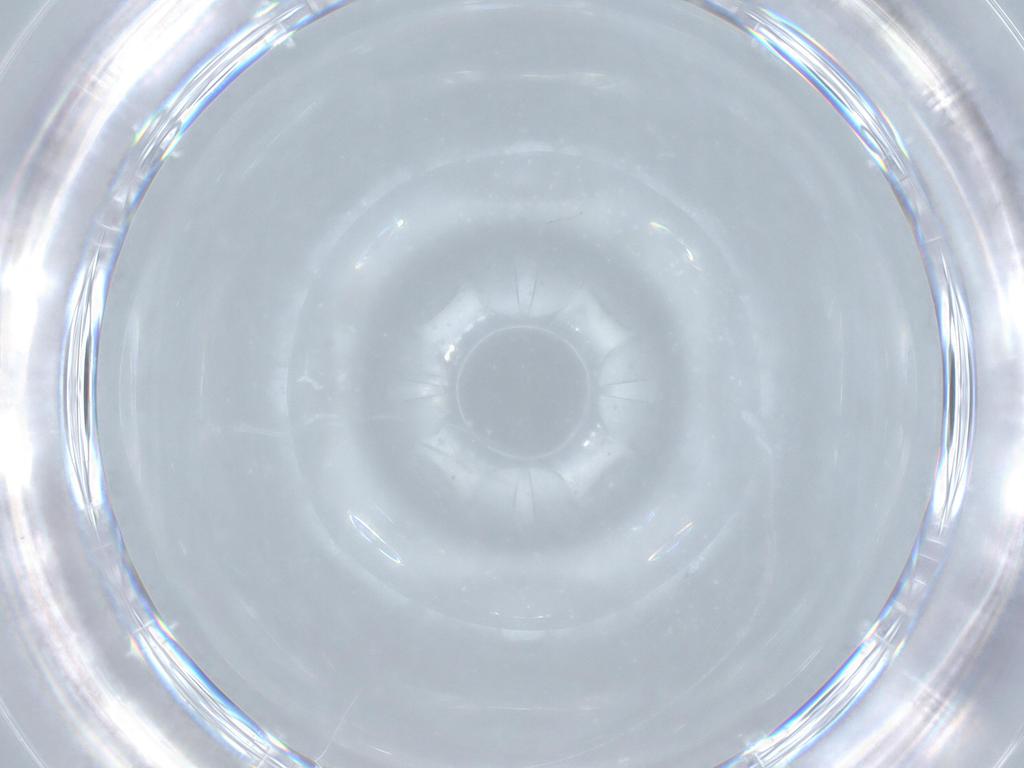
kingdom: Animalia
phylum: Arthropoda
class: Insecta
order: Diptera
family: Cecidomyiidae
